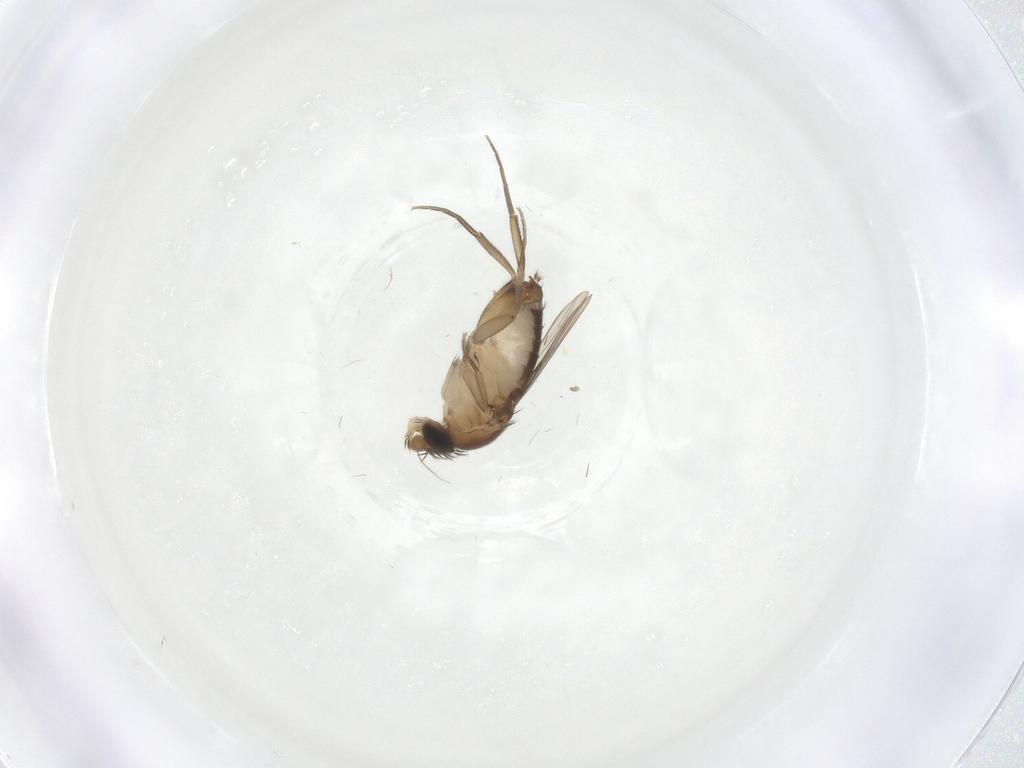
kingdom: Animalia
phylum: Arthropoda
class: Insecta
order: Diptera
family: Phoridae
